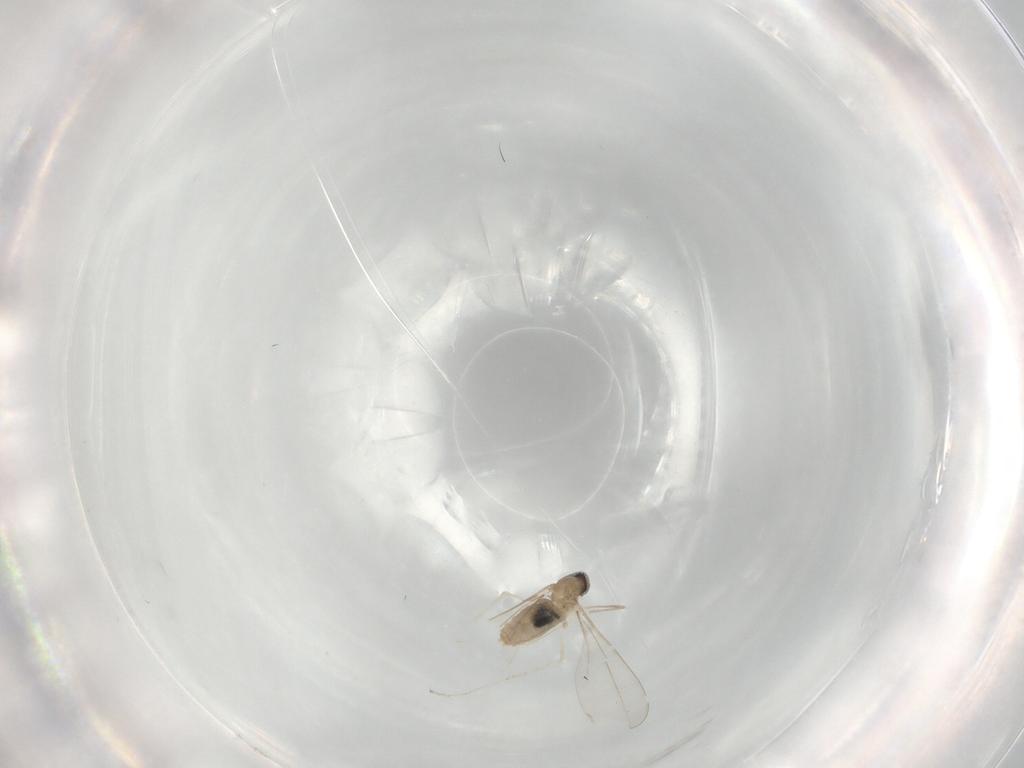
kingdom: Animalia
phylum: Arthropoda
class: Insecta
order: Diptera
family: Cecidomyiidae
